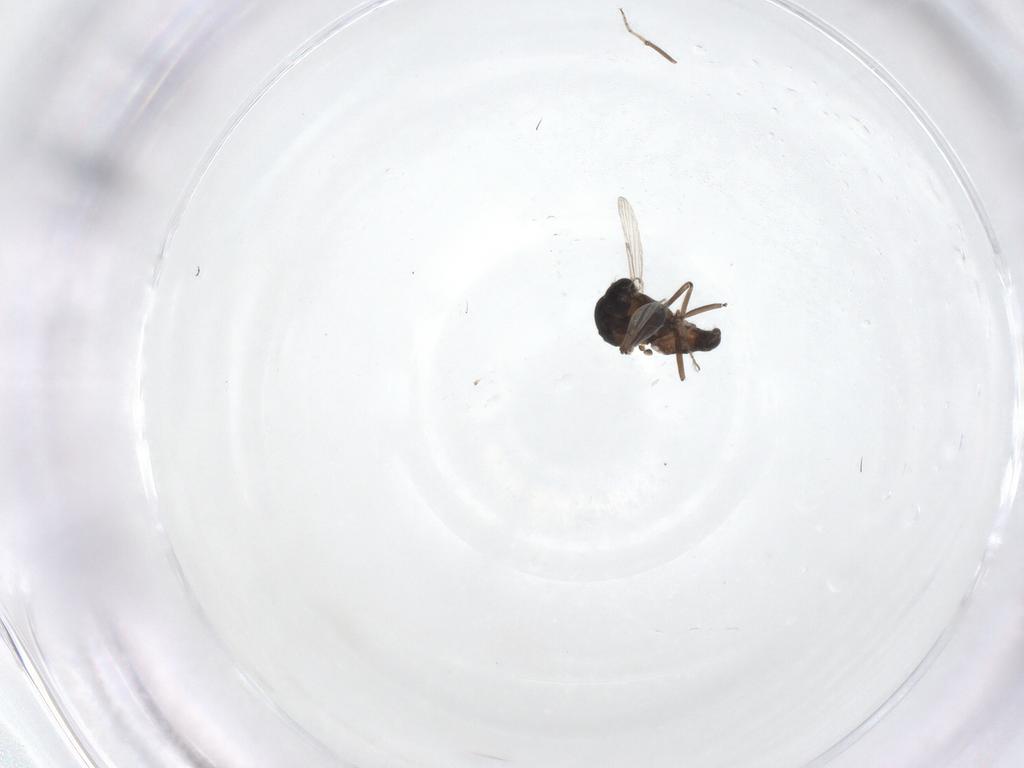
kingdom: Animalia
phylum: Arthropoda
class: Insecta
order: Diptera
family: Ceratopogonidae
